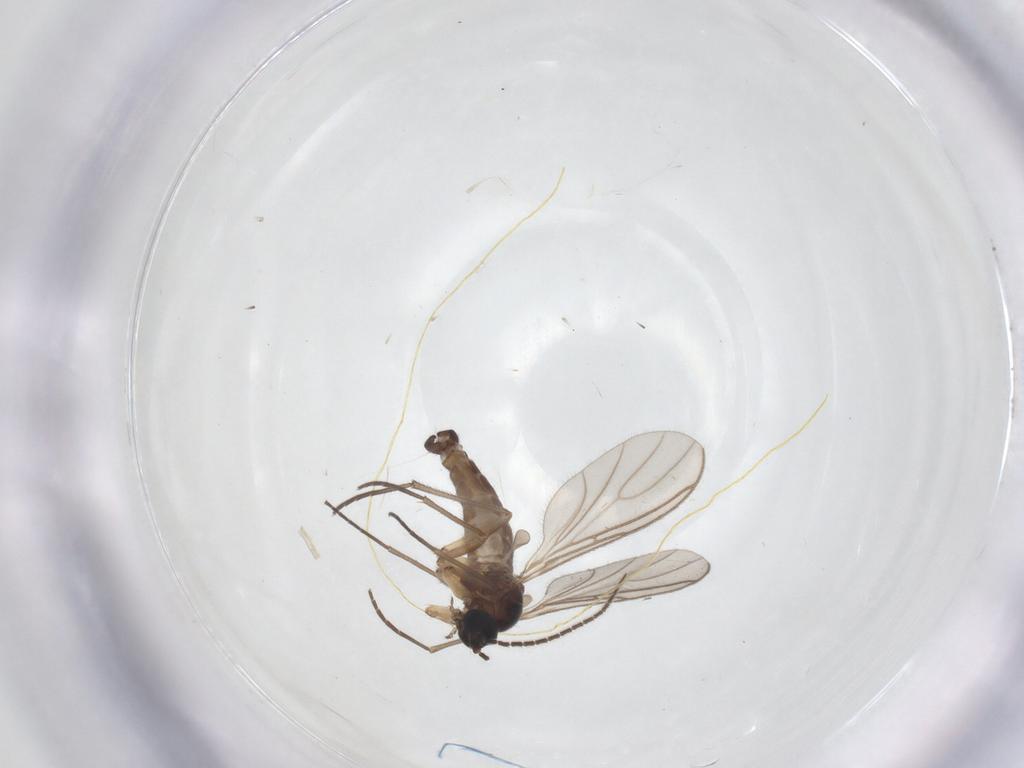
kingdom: Animalia
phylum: Arthropoda
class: Insecta
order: Diptera
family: Sciaridae
